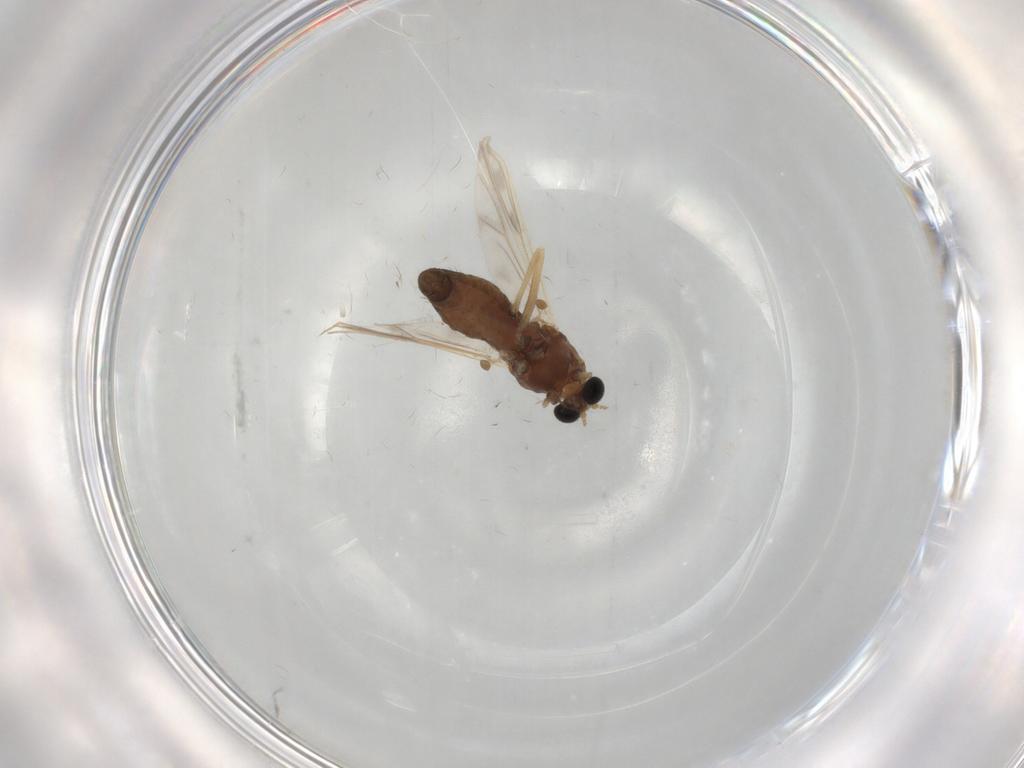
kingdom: Animalia
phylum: Arthropoda
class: Insecta
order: Diptera
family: Chironomidae
